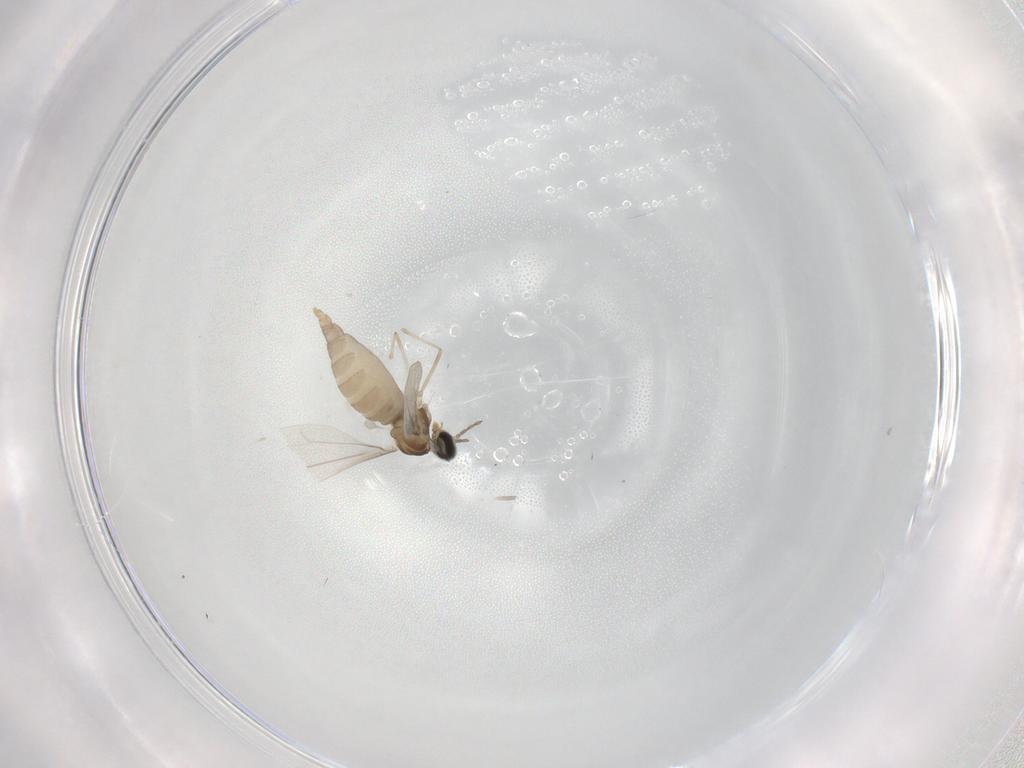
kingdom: Animalia
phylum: Arthropoda
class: Insecta
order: Diptera
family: Cecidomyiidae
